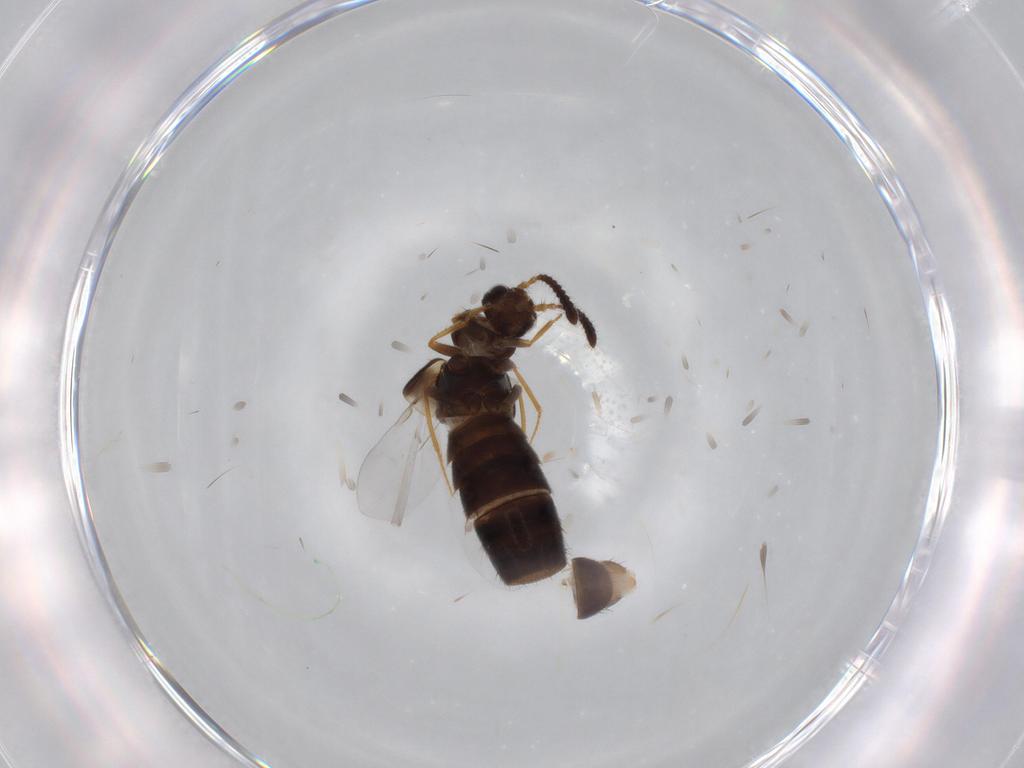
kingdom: Animalia
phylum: Arthropoda
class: Insecta
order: Coleoptera
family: Staphylinidae
